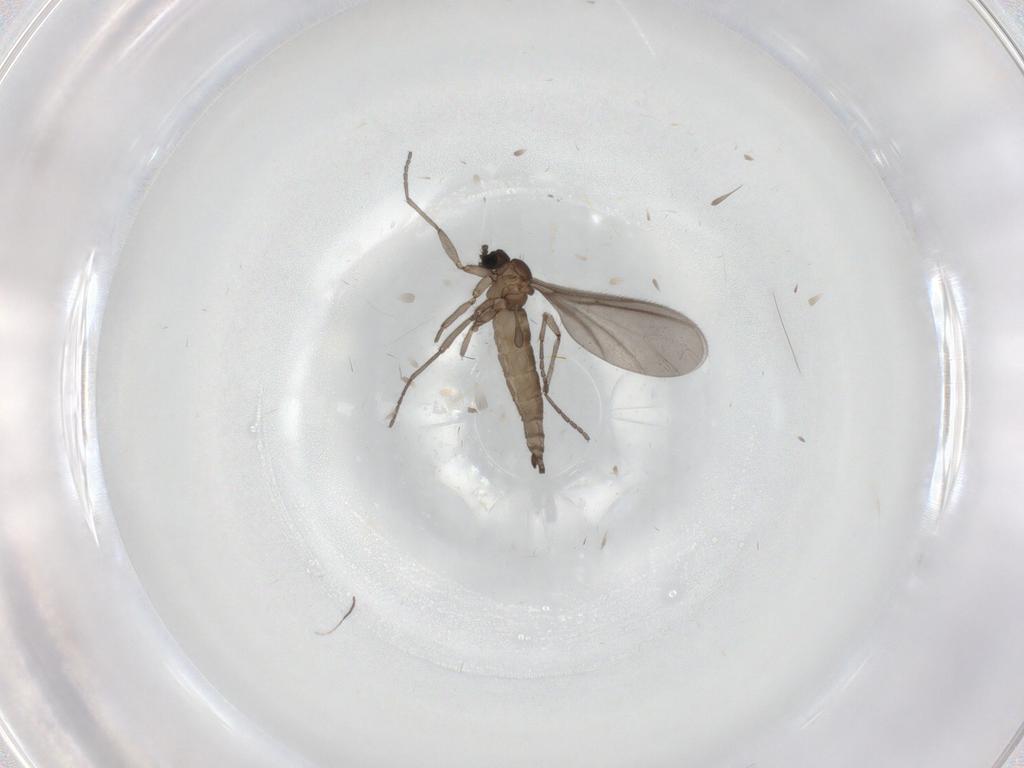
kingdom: Animalia
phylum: Arthropoda
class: Insecta
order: Diptera
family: Sciaridae
